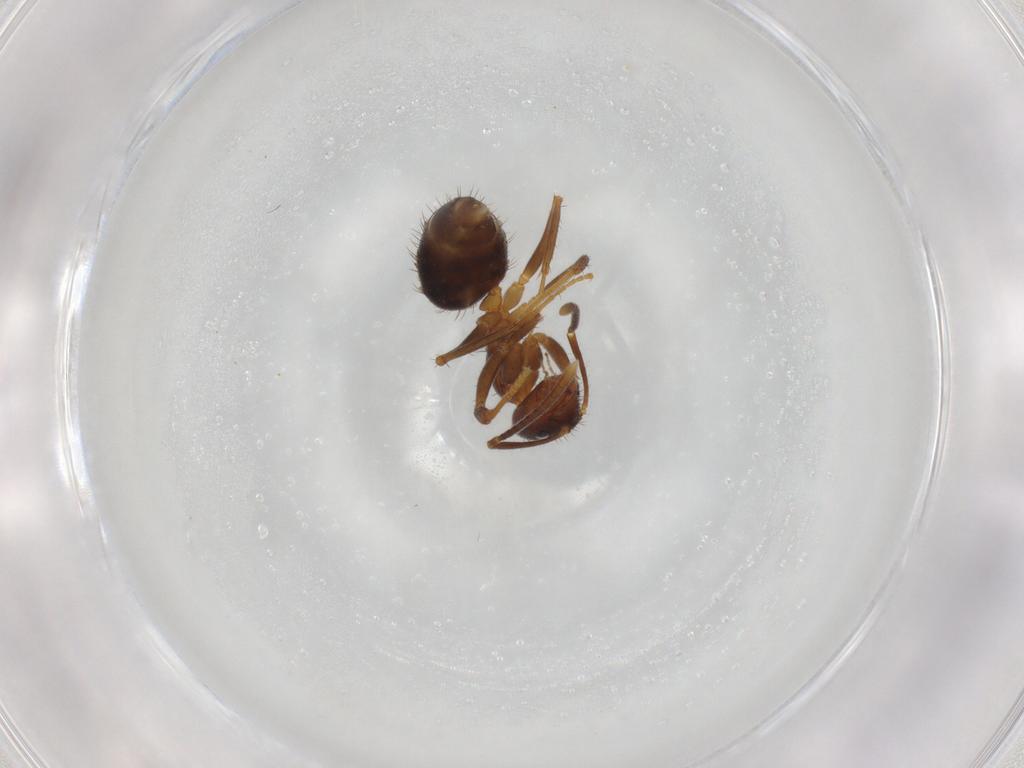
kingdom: Animalia
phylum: Arthropoda
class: Insecta
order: Hymenoptera
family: Formicidae
